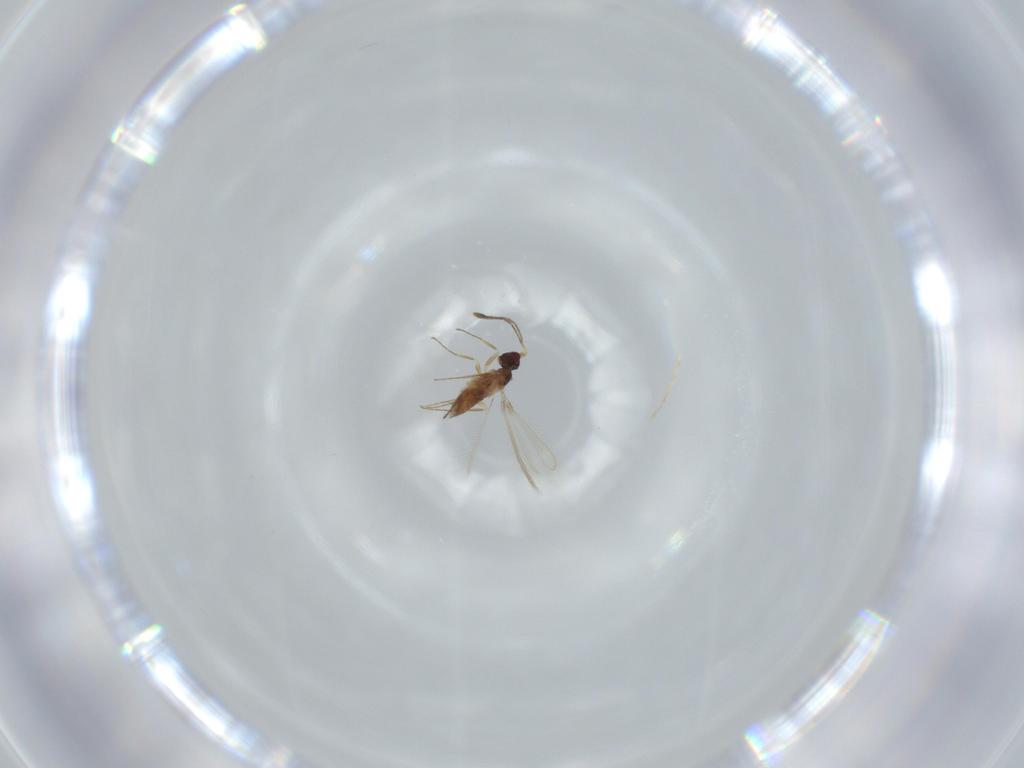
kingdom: Animalia
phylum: Arthropoda
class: Insecta
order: Hymenoptera
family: Mymaridae
